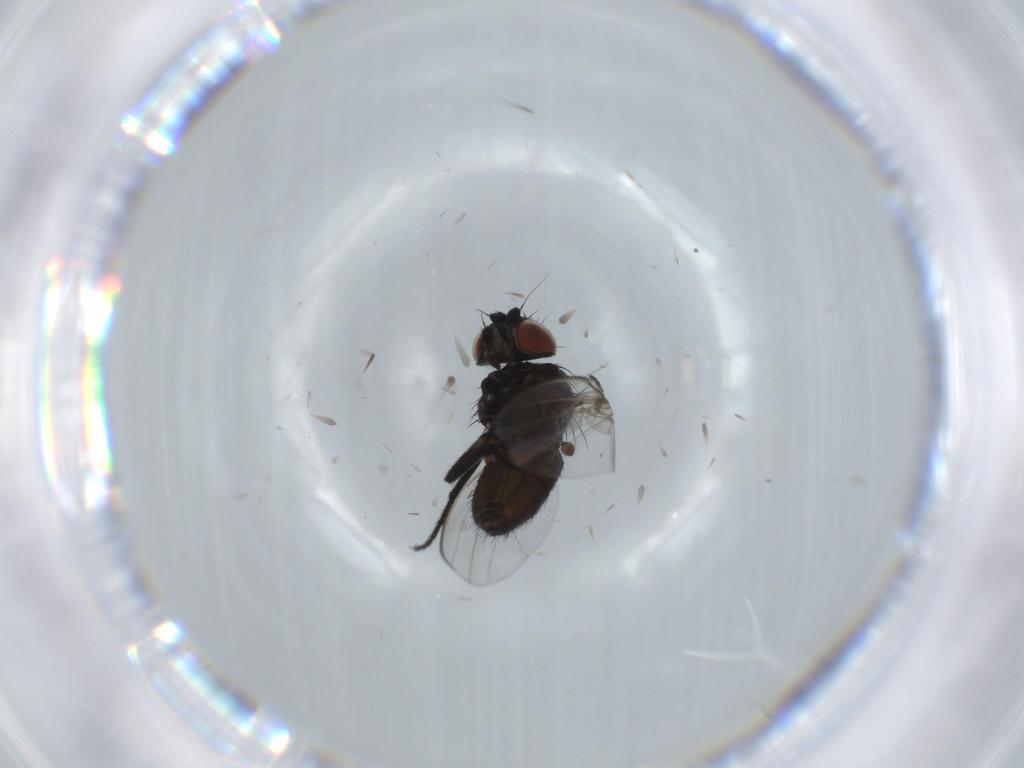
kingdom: Animalia
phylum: Arthropoda
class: Insecta
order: Diptera
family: Milichiidae
